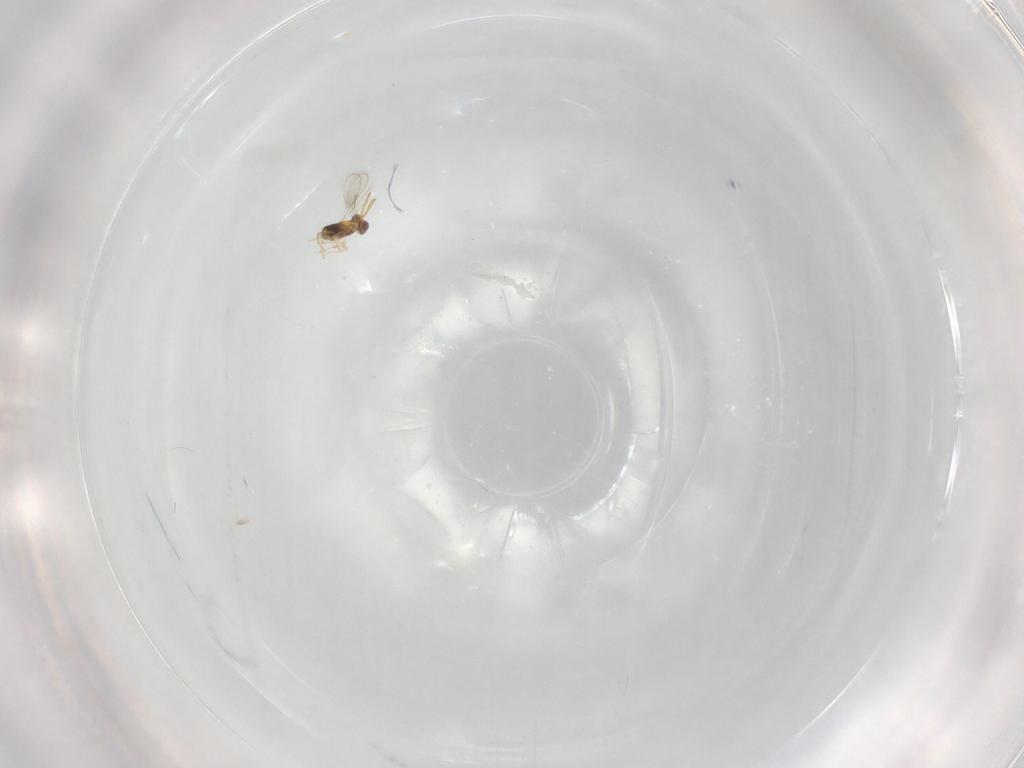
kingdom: Animalia
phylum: Arthropoda
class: Insecta
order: Hymenoptera
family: Aphelinidae
